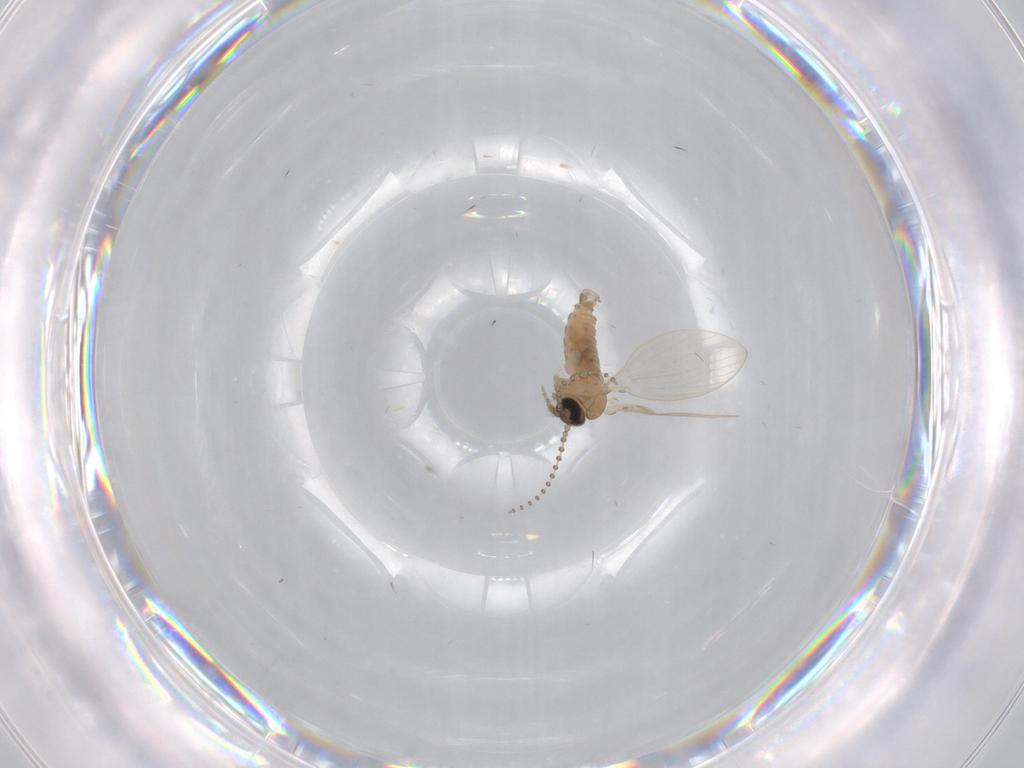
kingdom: Animalia
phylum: Arthropoda
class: Insecta
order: Diptera
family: Psychodidae
